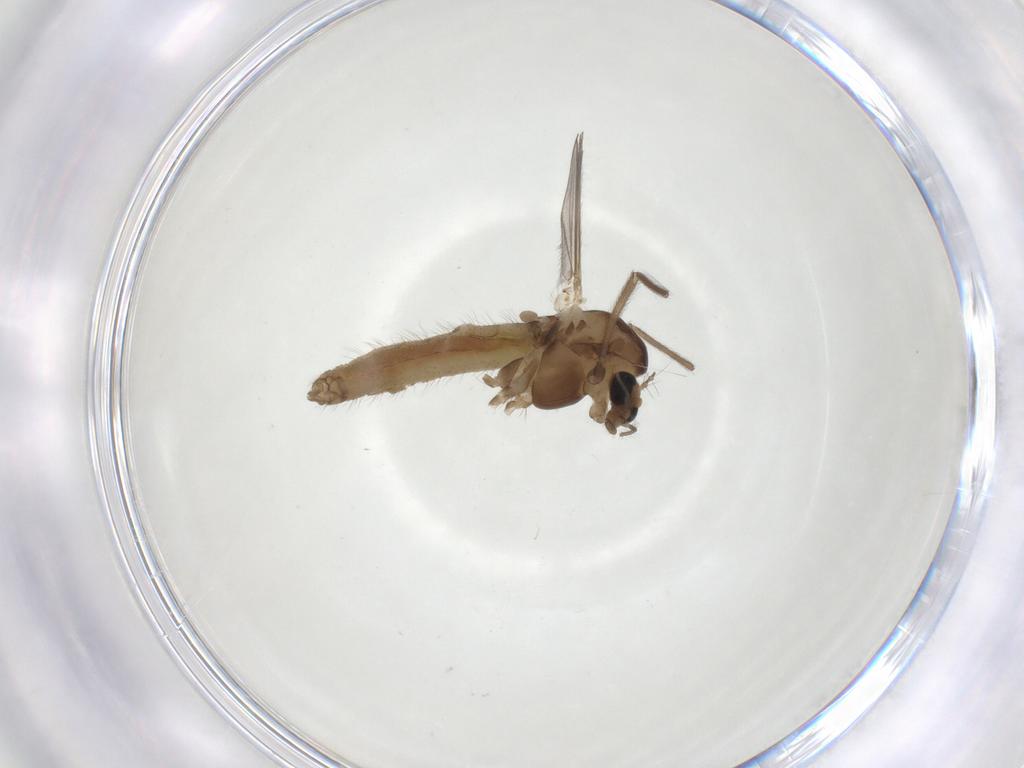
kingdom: Animalia
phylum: Arthropoda
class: Insecta
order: Diptera
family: Chironomidae
